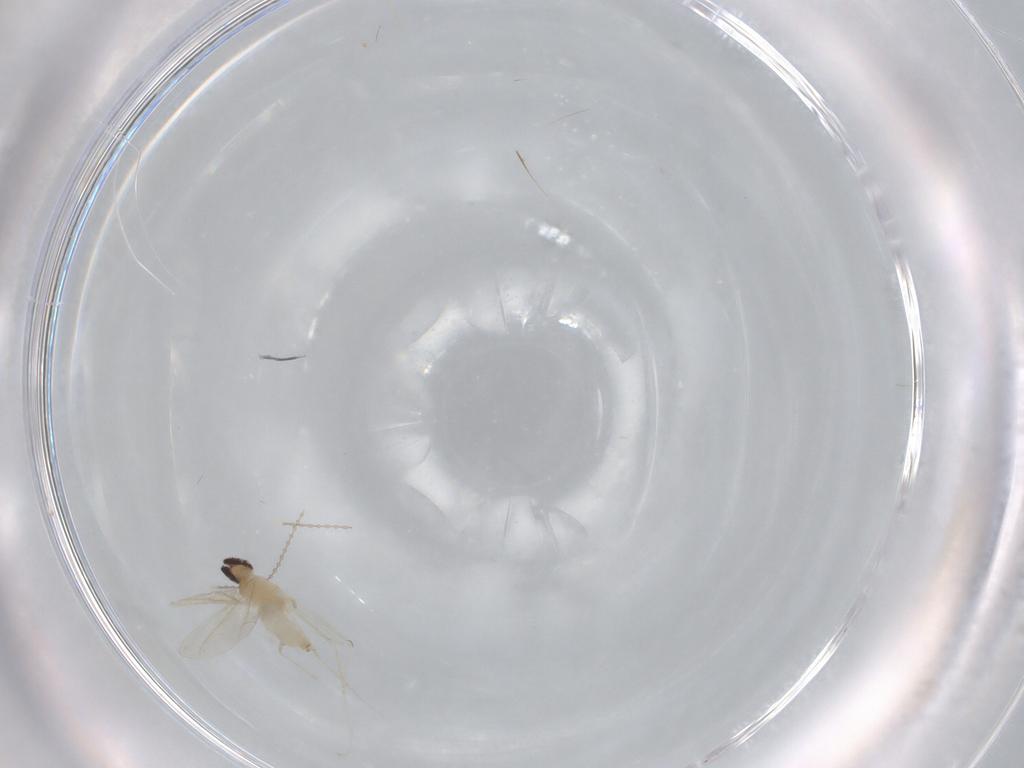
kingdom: Animalia
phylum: Arthropoda
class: Insecta
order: Diptera
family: Cecidomyiidae
